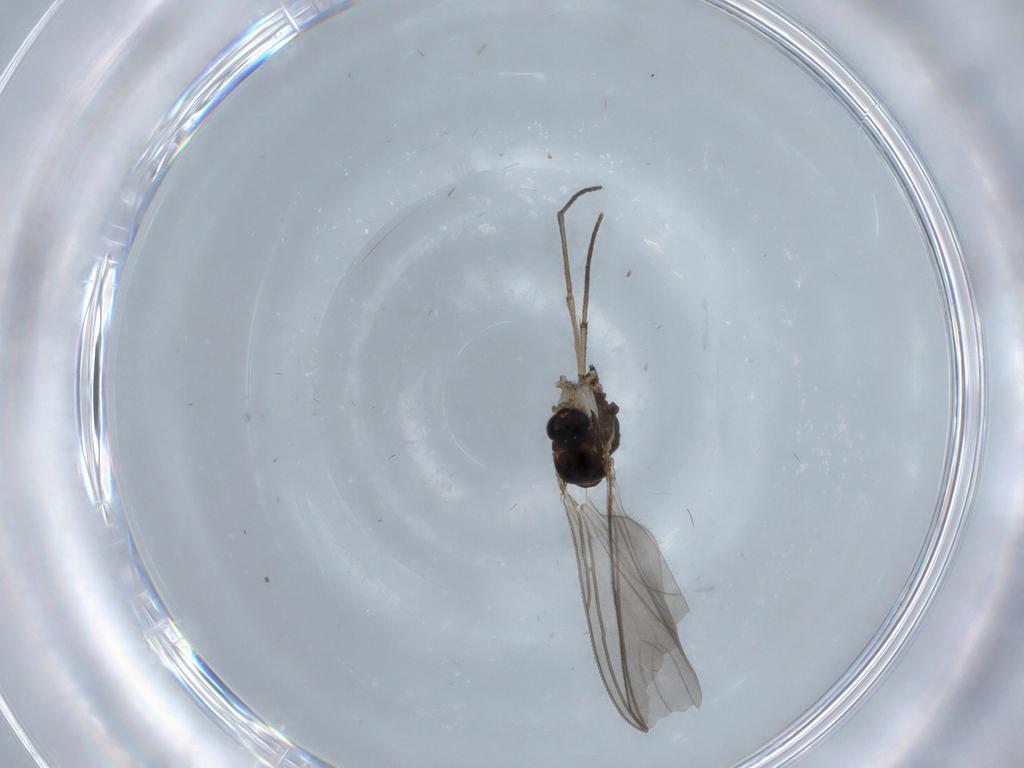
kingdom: Animalia
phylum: Arthropoda
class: Insecta
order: Diptera
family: Sciaridae
